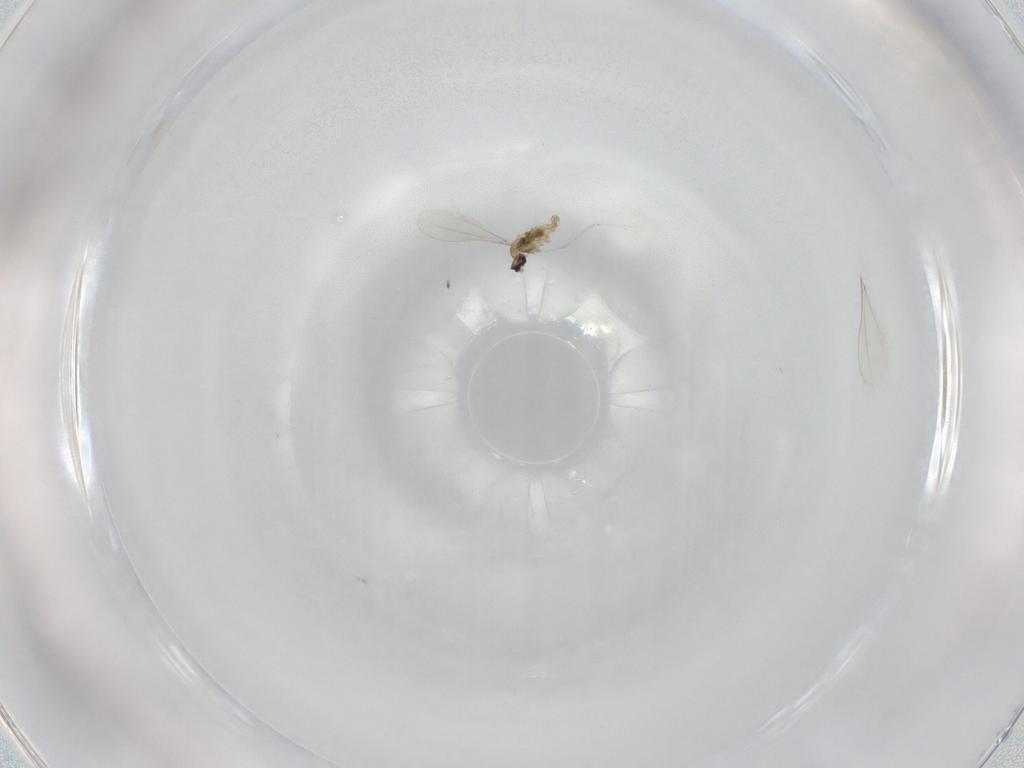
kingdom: Animalia
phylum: Arthropoda
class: Insecta
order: Diptera
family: Cecidomyiidae
